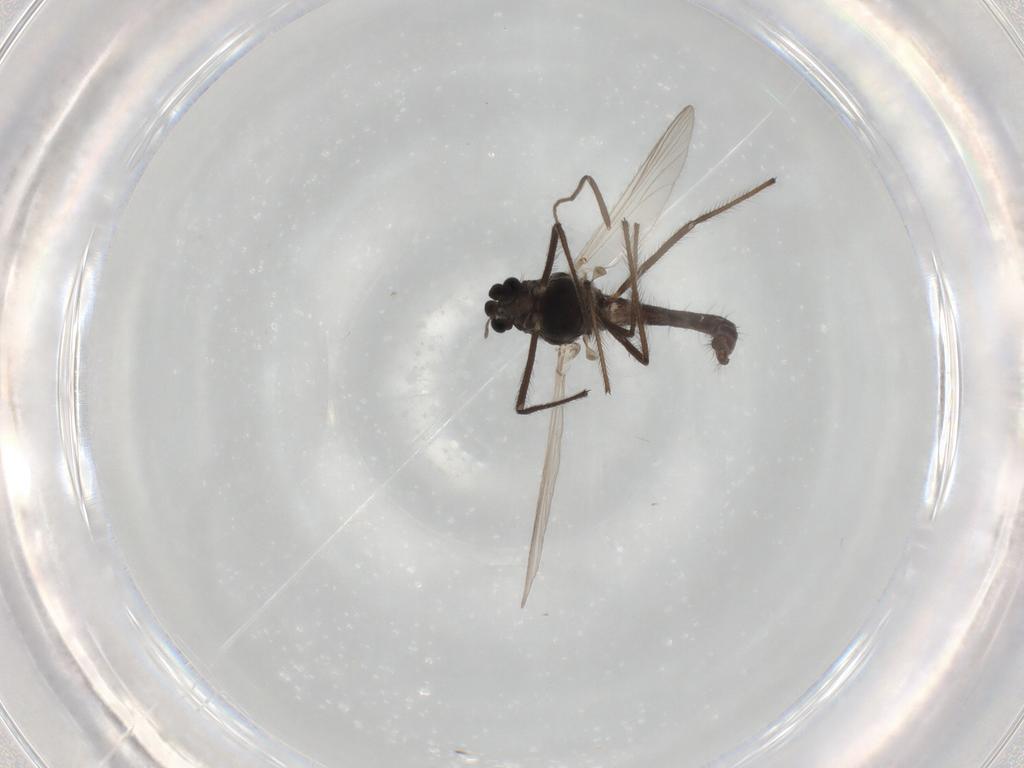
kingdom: Animalia
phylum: Arthropoda
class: Insecta
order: Diptera
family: Chironomidae
